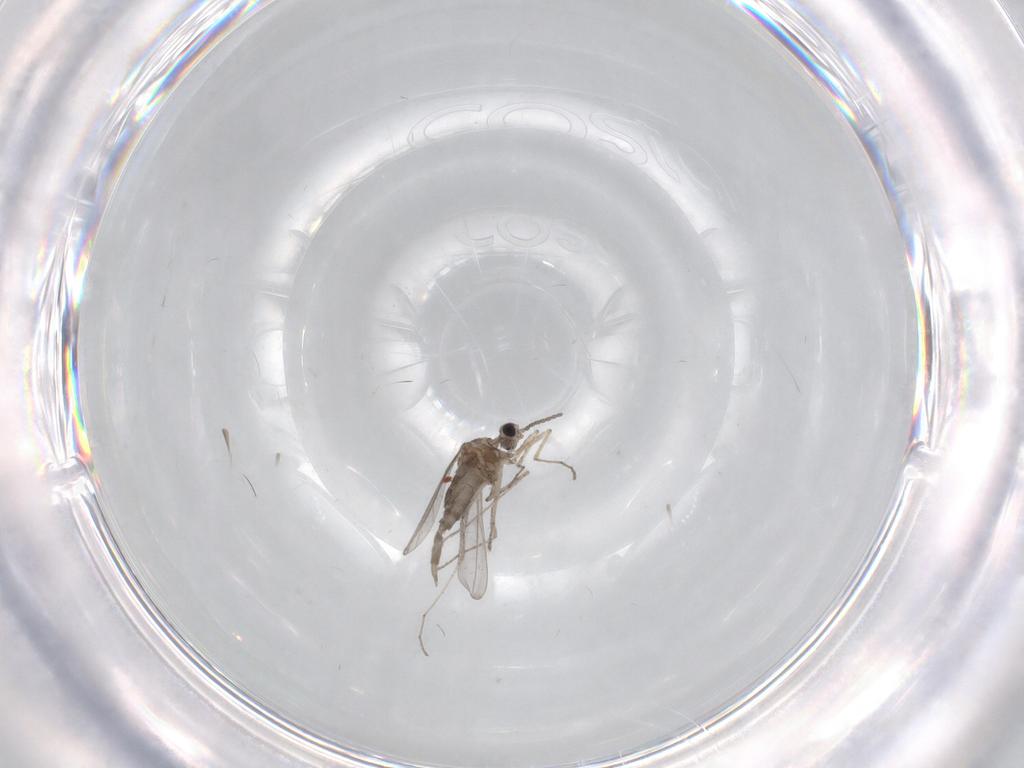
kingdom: Animalia
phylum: Arthropoda
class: Insecta
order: Diptera
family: Cecidomyiidae
